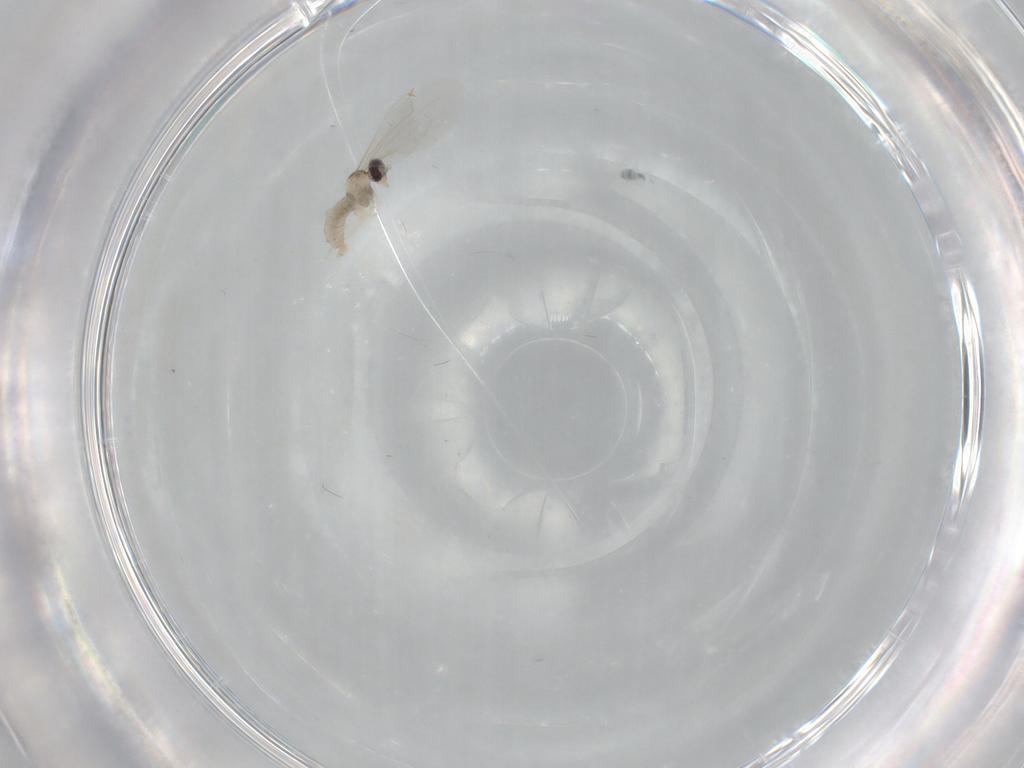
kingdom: Animalia
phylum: Arthropoda
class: Insecta
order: Diptera
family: Cecidomyiidae
